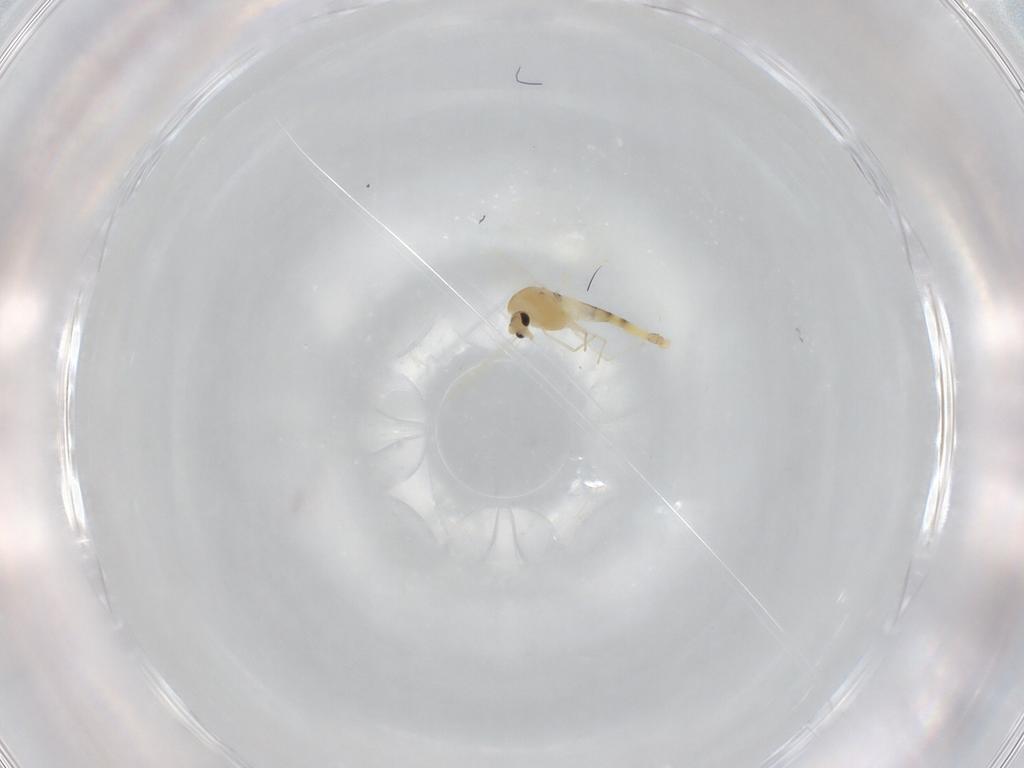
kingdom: Animalia
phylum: Arthropoda
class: Insecta
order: Diptera
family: Chironomidae
